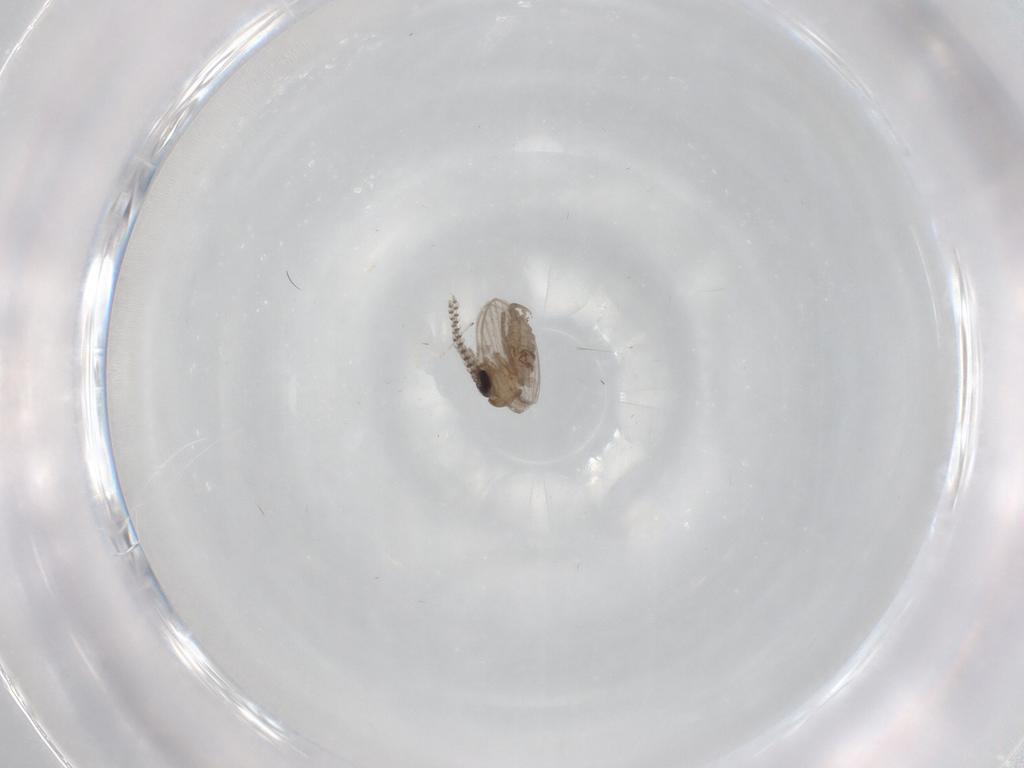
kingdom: Animalia
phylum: Arthropoda
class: Insecta
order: Diptera
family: Psychodidae
